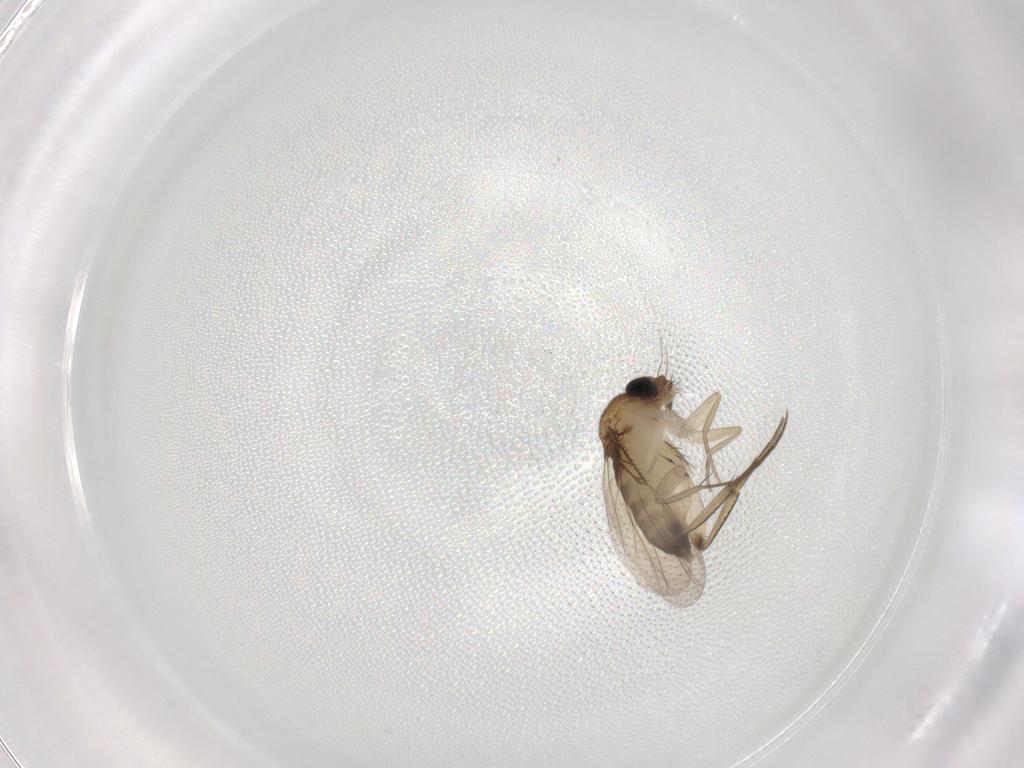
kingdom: Animalia
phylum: Arthropoda
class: Insecta
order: Diptera
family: Phoridae
